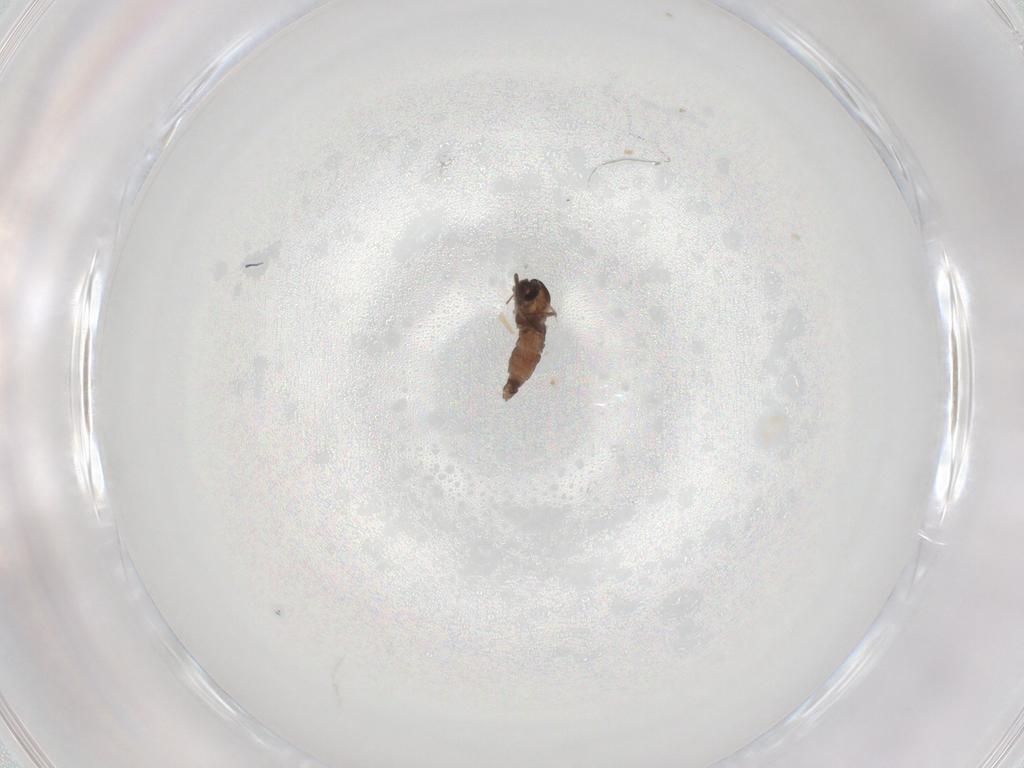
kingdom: Animalia
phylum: Arthropoda
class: Insecta
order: Diptera
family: Chironomidae
